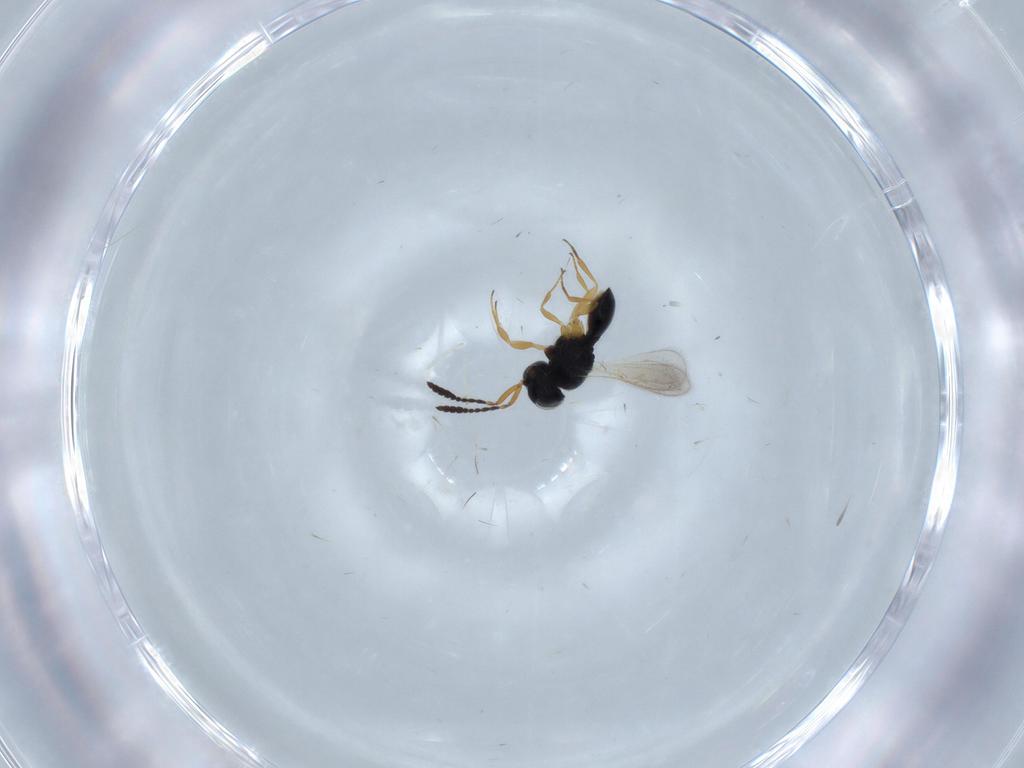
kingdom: Animalia
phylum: Arthropoda
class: Insecta
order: Hymenoptera
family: Scelionidae
